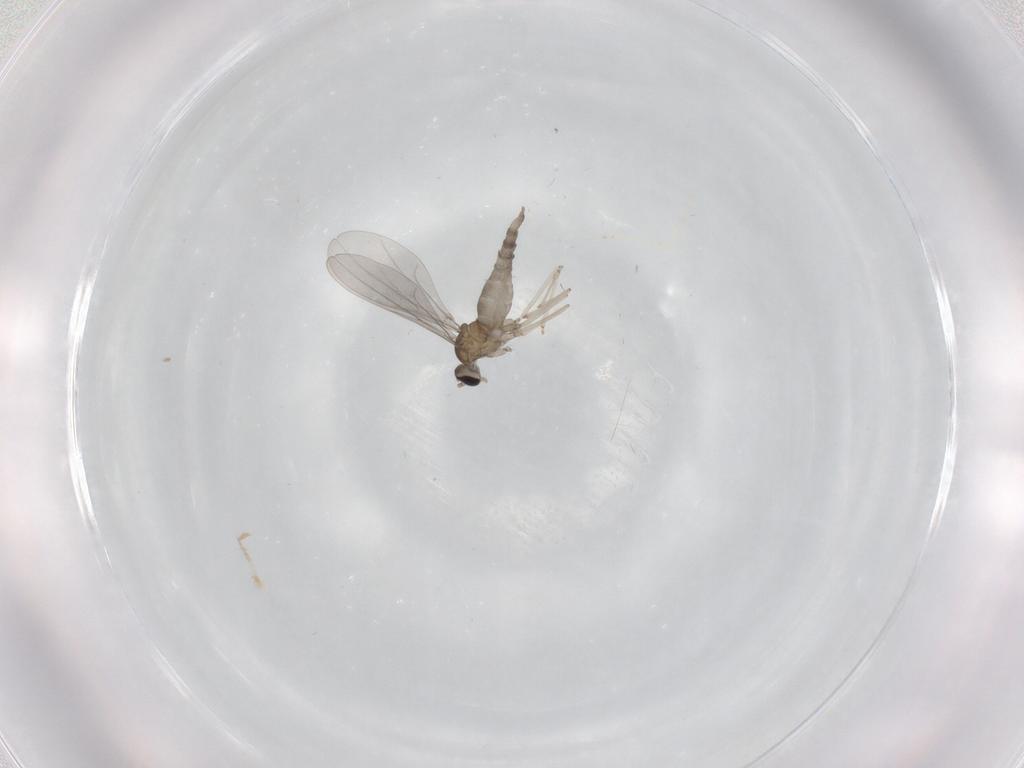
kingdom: Animalia
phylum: Arthropoda
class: Insecta
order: Diptera
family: Cecidomyiidae
